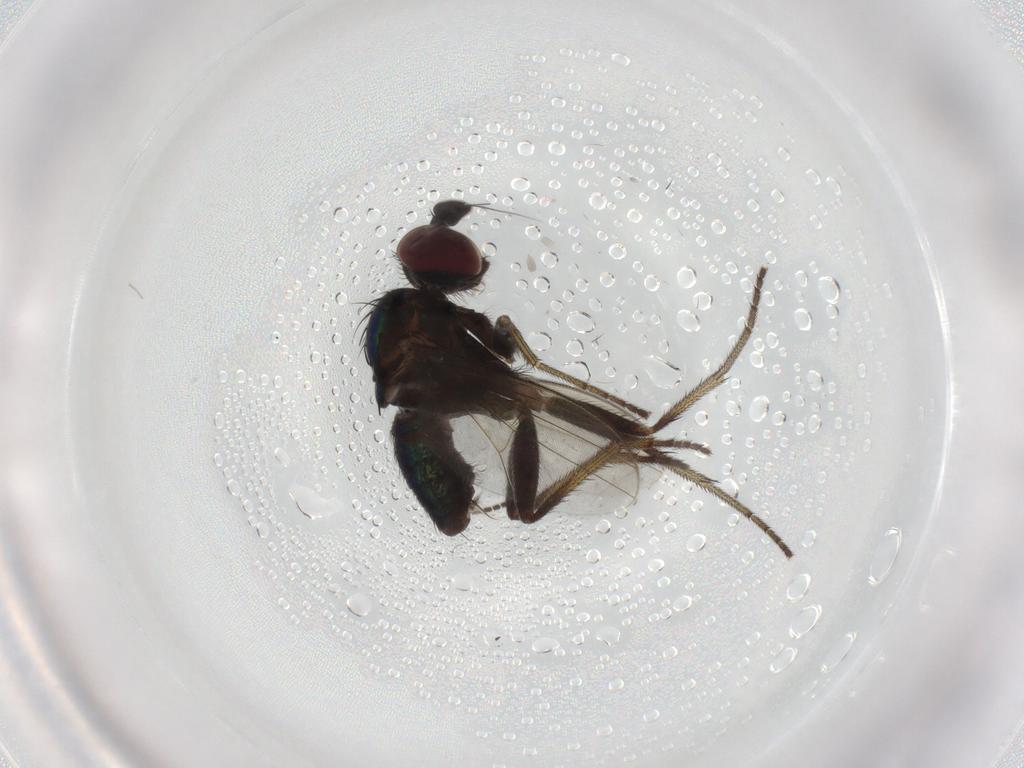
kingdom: Animalia
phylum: Arthropoda
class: Insecta
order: Diptera
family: Dolichopodidae
